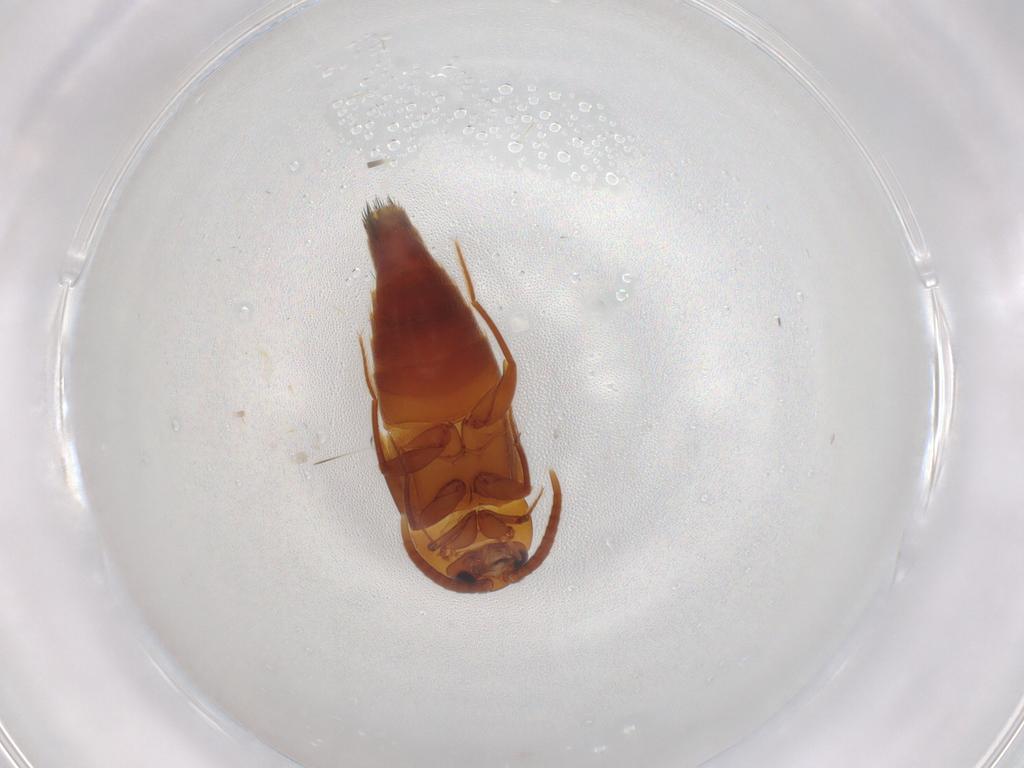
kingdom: Animalia
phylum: Arthropoda
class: Insecta
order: Coleoptera
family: Staphylinidae
